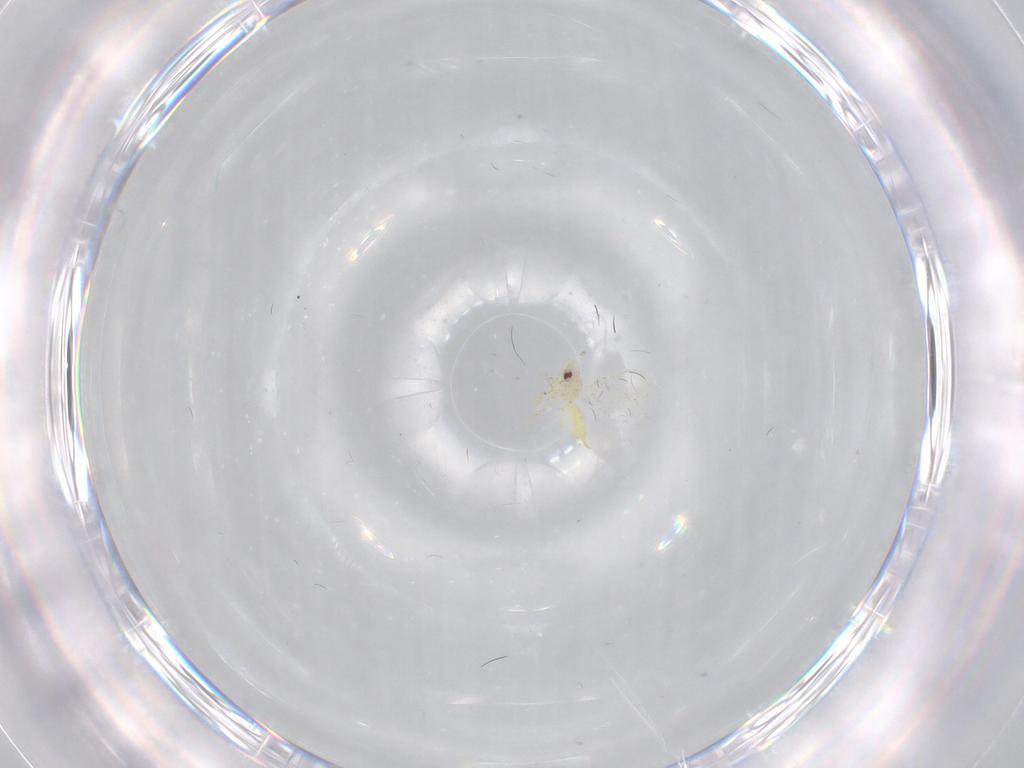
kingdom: Animalia
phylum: Arthropoda
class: Insecta
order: Hemiptera
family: Aleyrodidae
